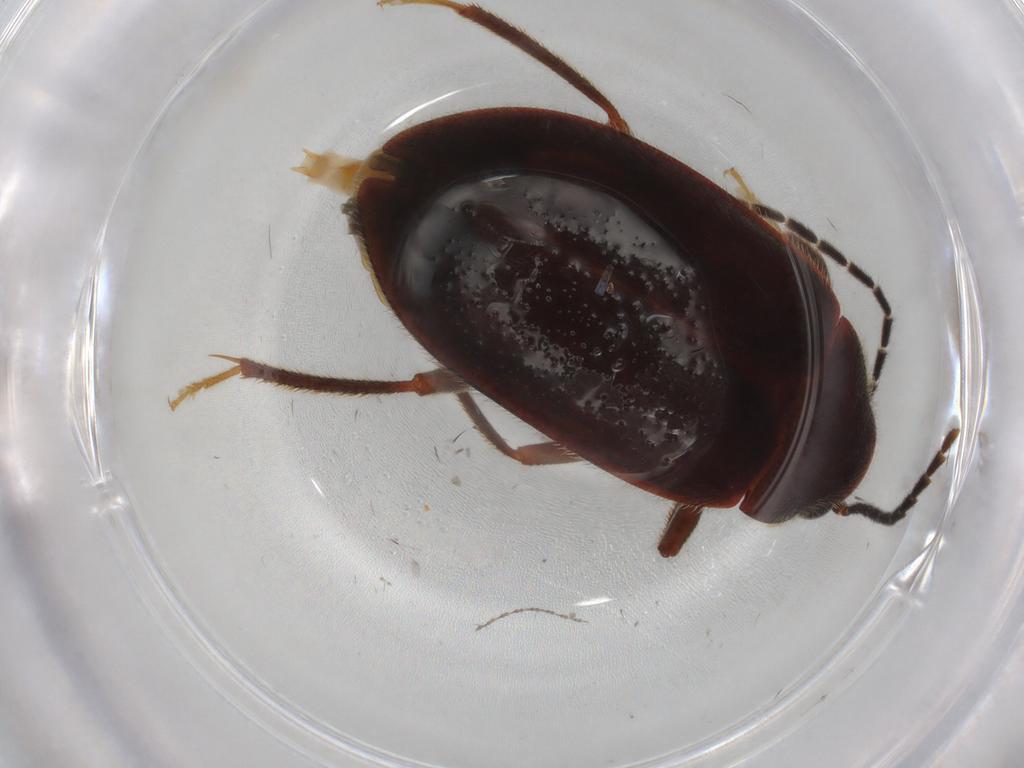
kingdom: Animalia
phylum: Arthropoda
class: Insecta
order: Coleoptera
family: Ptilodactylidae
